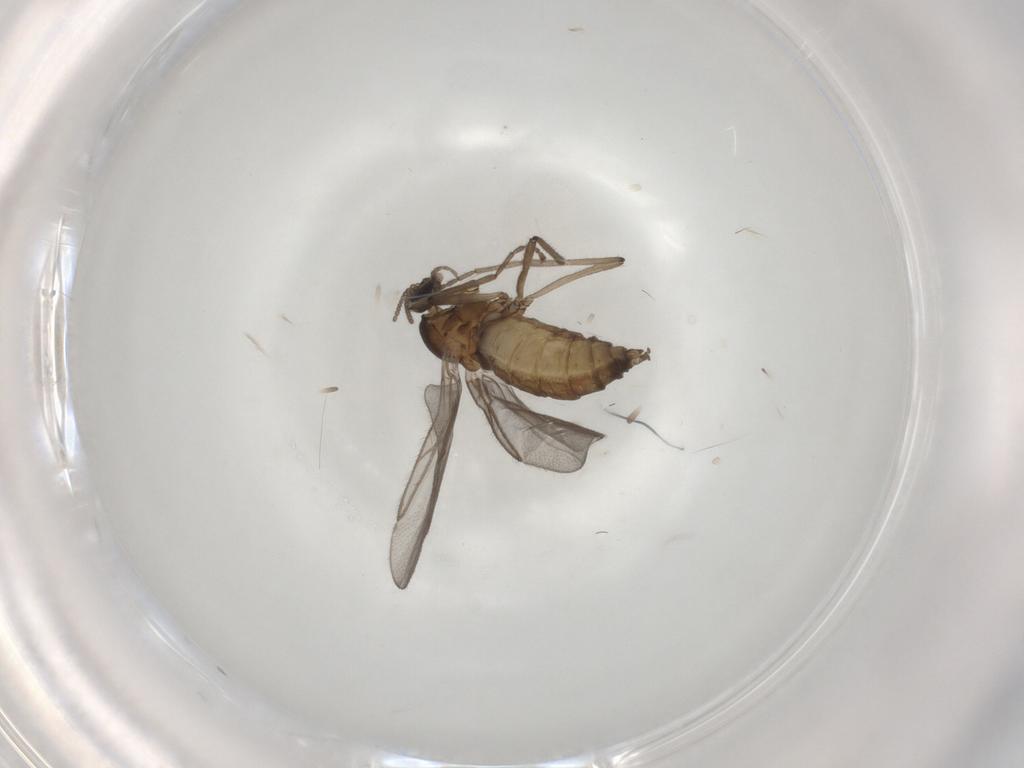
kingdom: Animalia
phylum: Arthropoda
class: Insecta
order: Diptera
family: Cecidomyiidae
